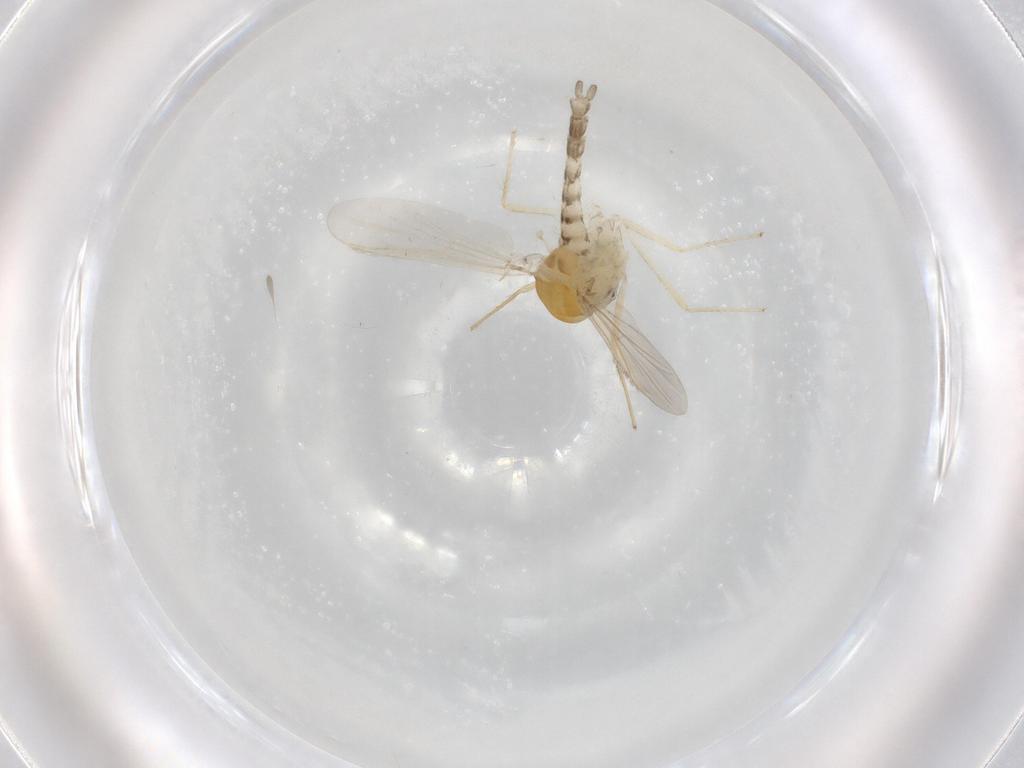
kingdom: Animalia
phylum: Arthropoda
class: Insecta
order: Diptera
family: Chironomidae
